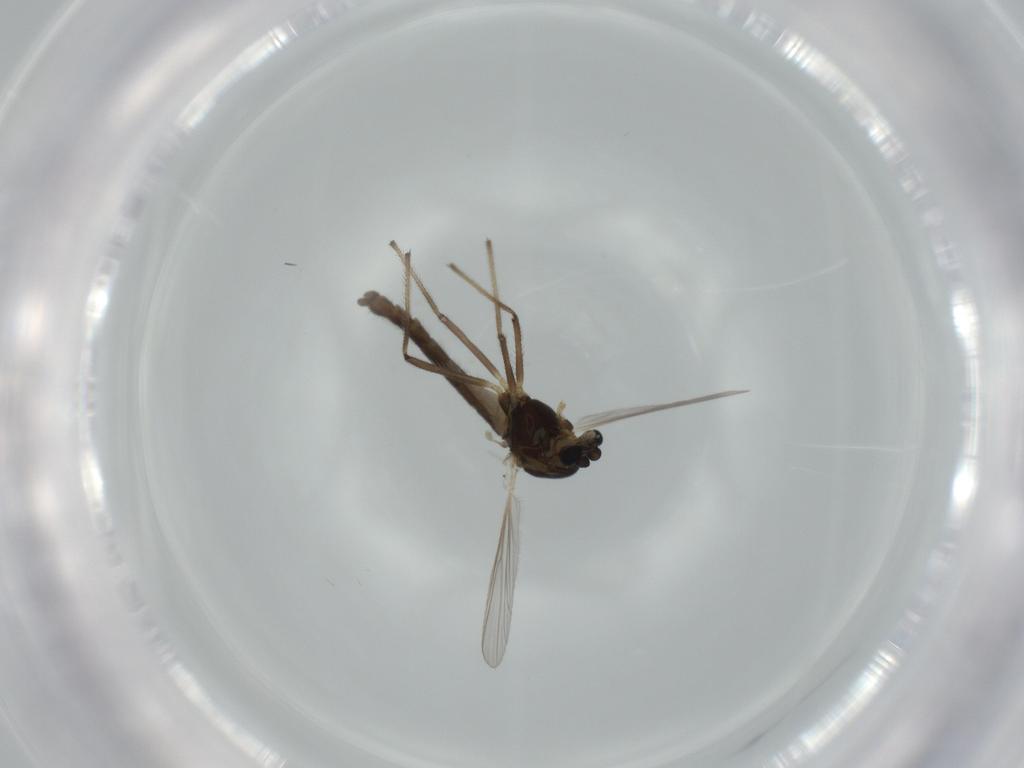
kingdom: Animalia
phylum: Arthropoda
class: Insecta
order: Diptera
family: Chironomidae
